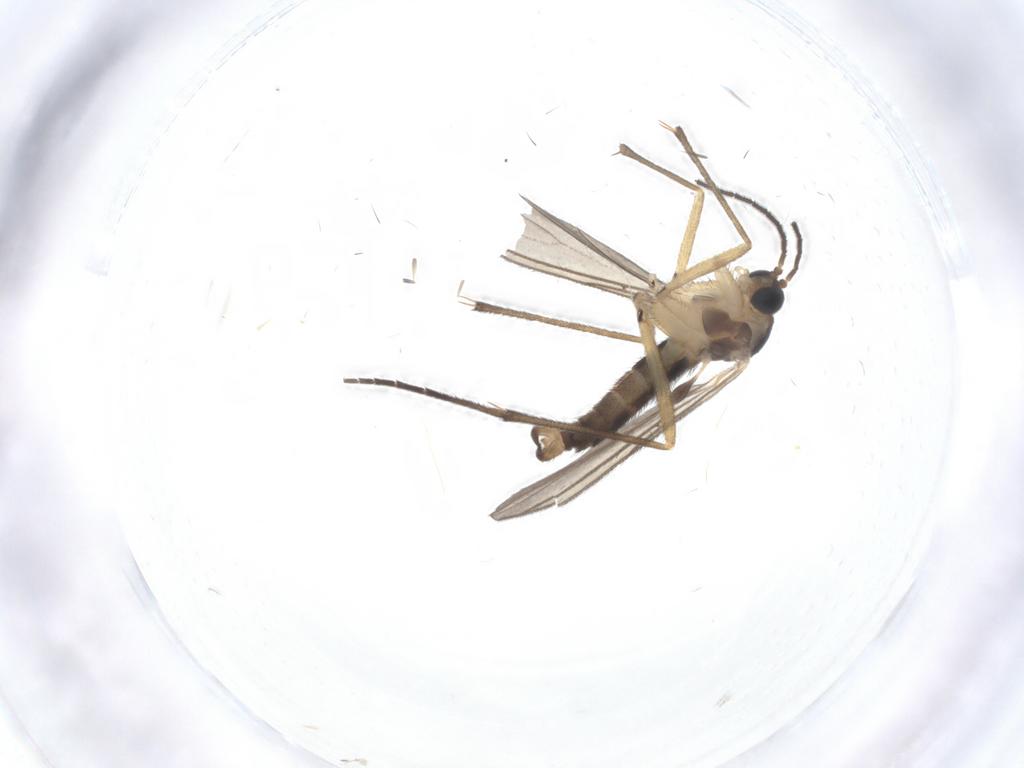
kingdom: Animalia
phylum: Arthropoda
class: Insecta
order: Diptera
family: Sciaridae
